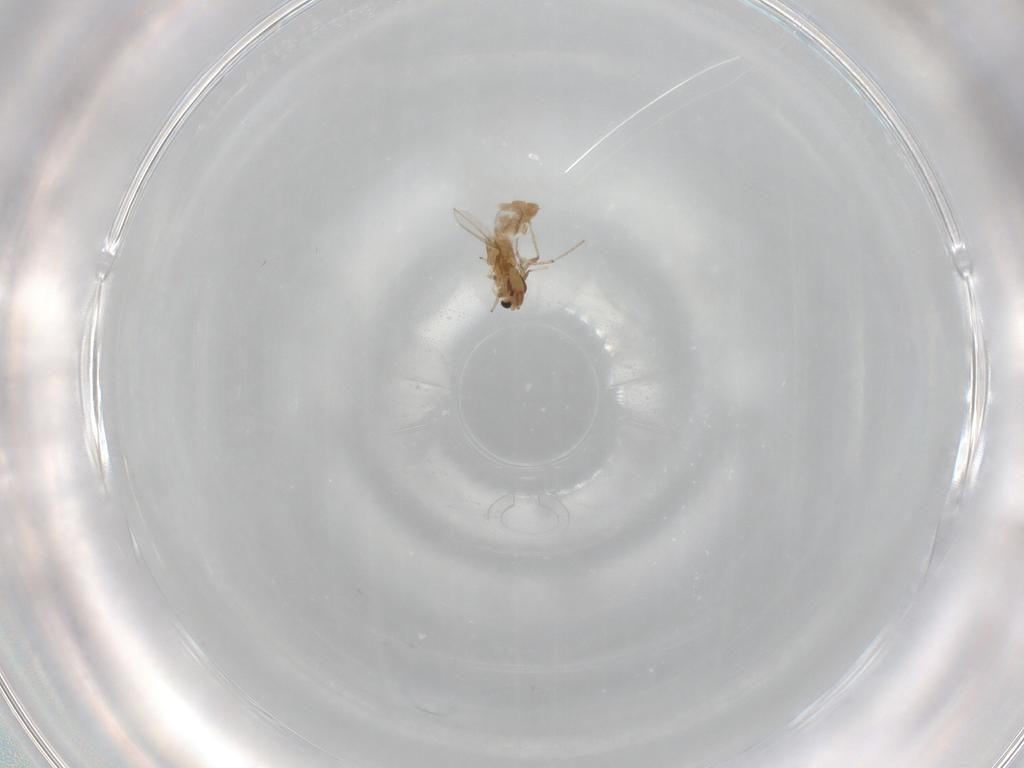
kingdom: Animalia
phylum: Arthropoda
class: Insecta
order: Diptera
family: Chironomidae
